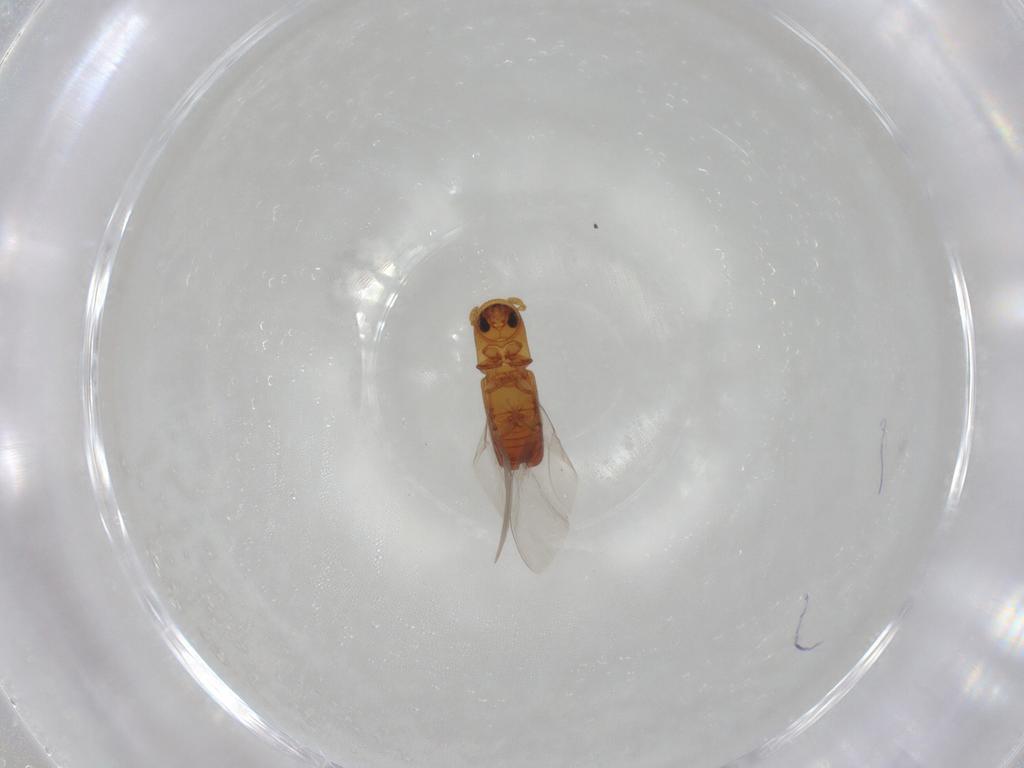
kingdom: Animalia
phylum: Arthropoda
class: Insecta
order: Coleoptera
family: Curculionidae
